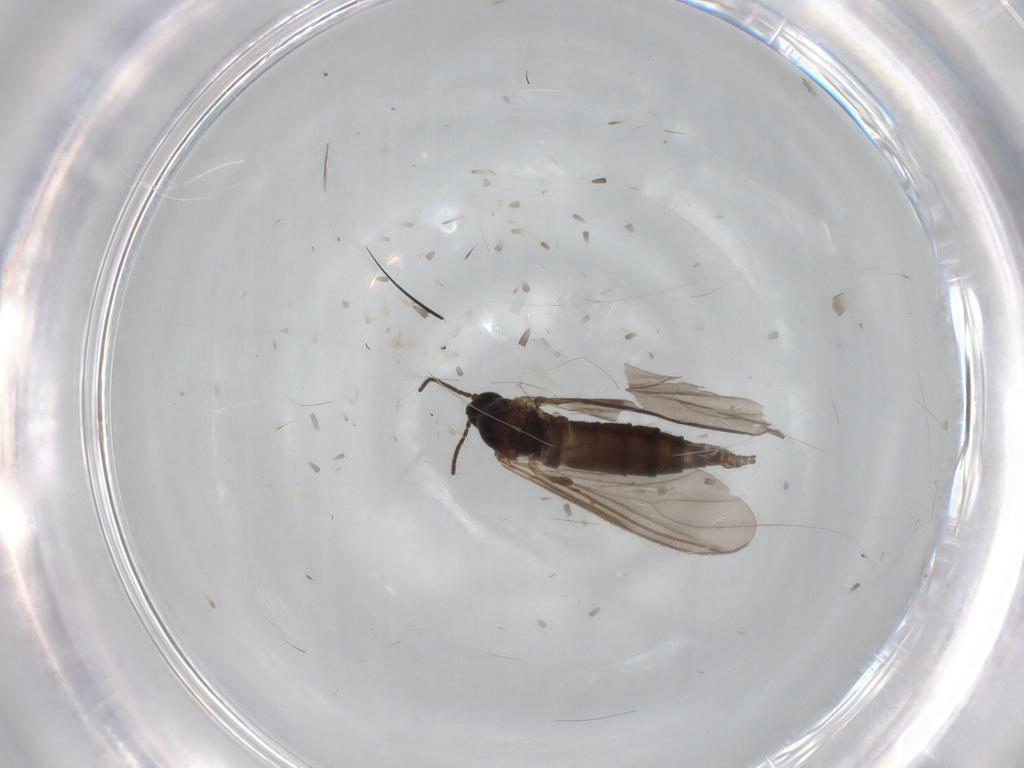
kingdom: Animalia
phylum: Arthropoda
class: Insecta
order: Diptera
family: Sciaridae
